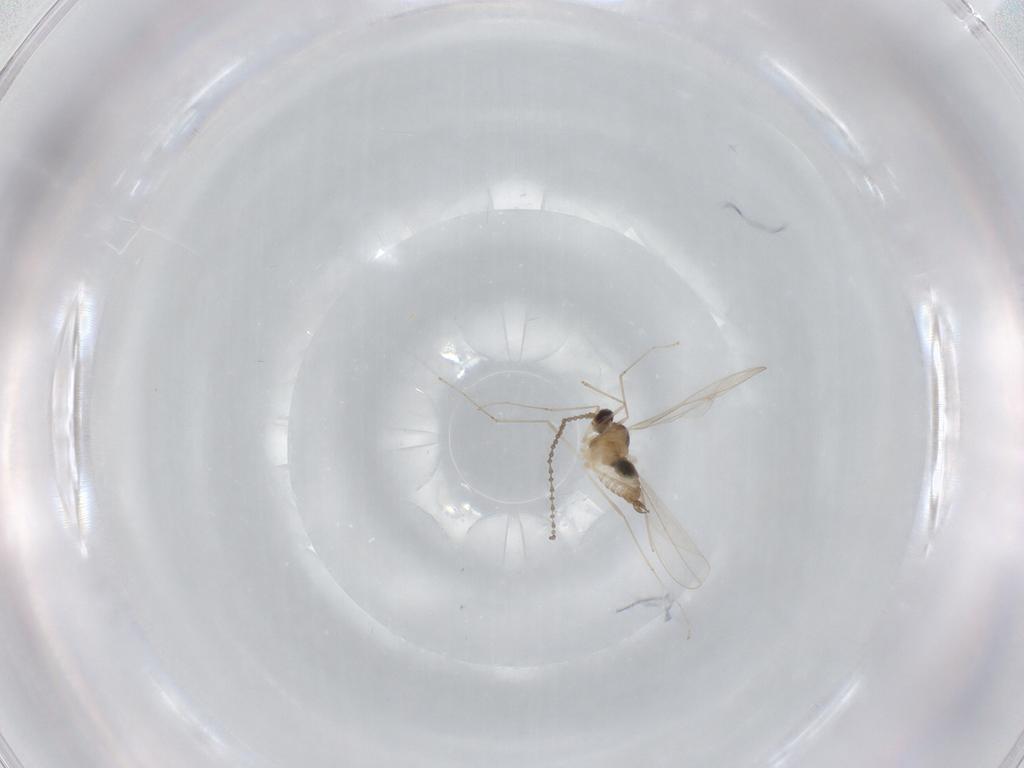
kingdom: Animalia
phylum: Arthropoda
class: Insecta
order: Diptera
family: Cecidomyiidae
